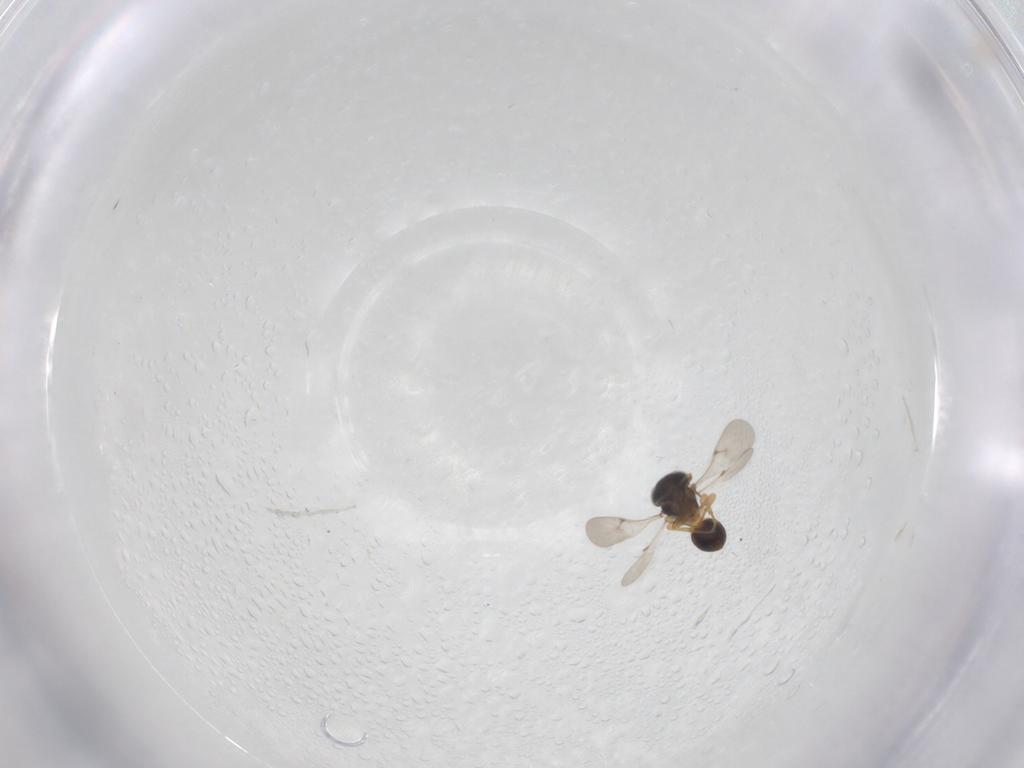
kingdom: Animalia
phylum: Arthropoda
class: Insecta
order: Hymenoptera
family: Scelionidae
